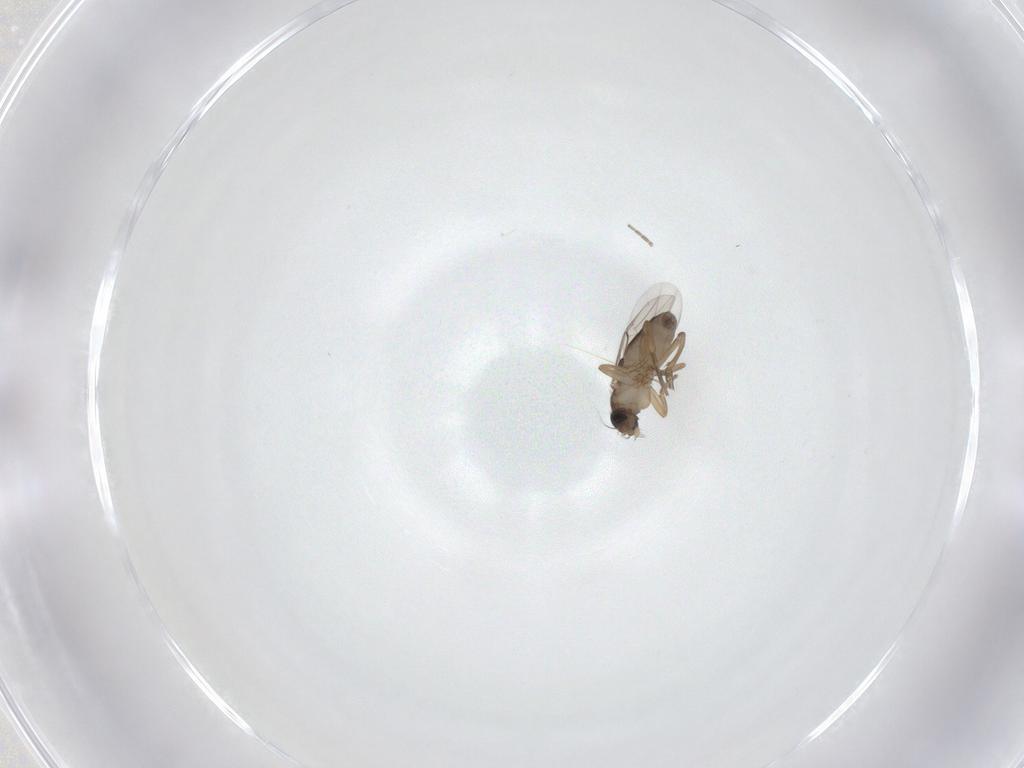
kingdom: Animalia
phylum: Arthropoda
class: Insecta
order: Diptera
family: Phoridae
